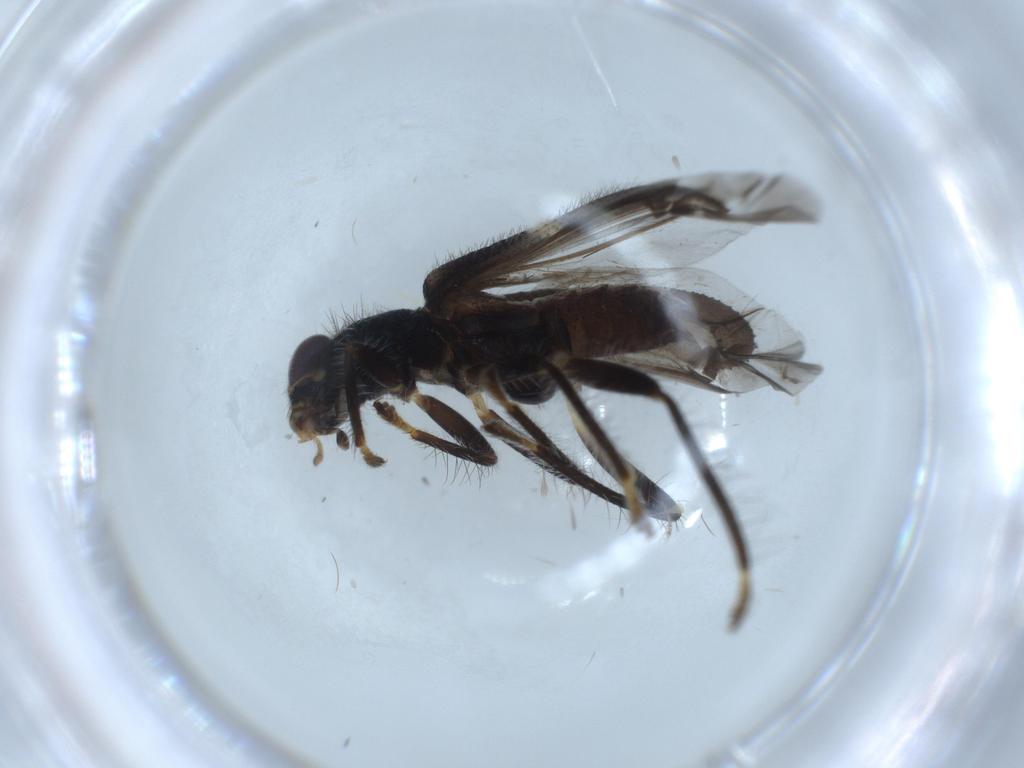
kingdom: Animalia
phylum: Arthropoda
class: Insecta
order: Coleoptera
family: Cleridae
